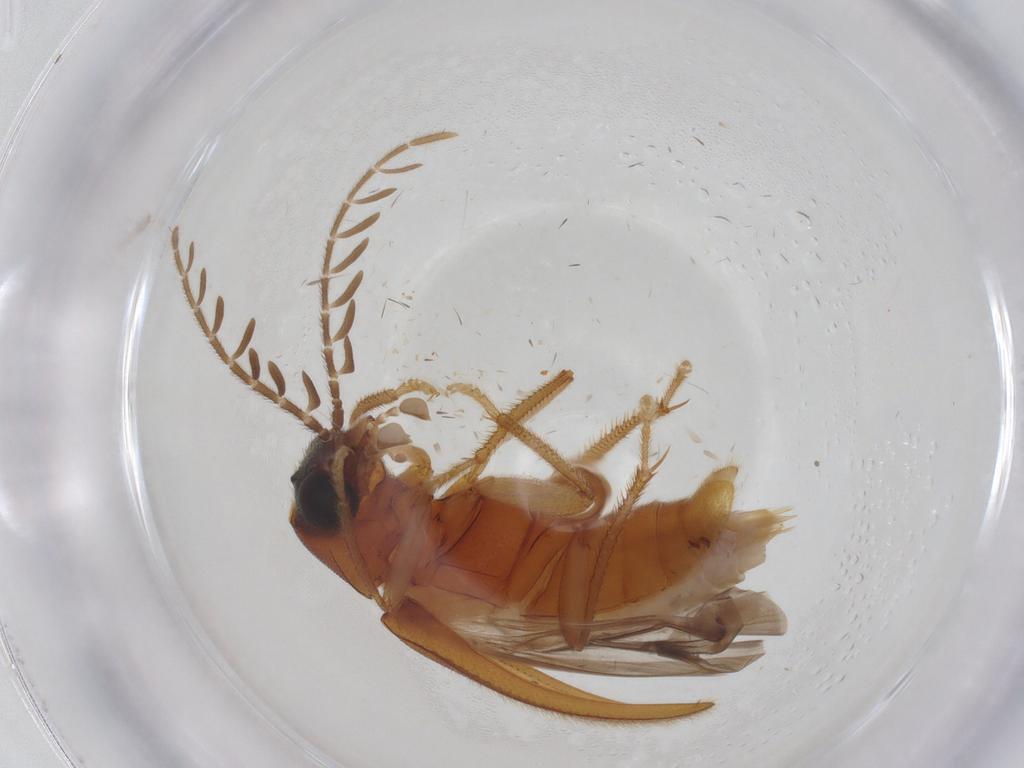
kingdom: Animalia
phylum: Arthropoda
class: Insecta
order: Coleoptera
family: Ptilodactylidae
